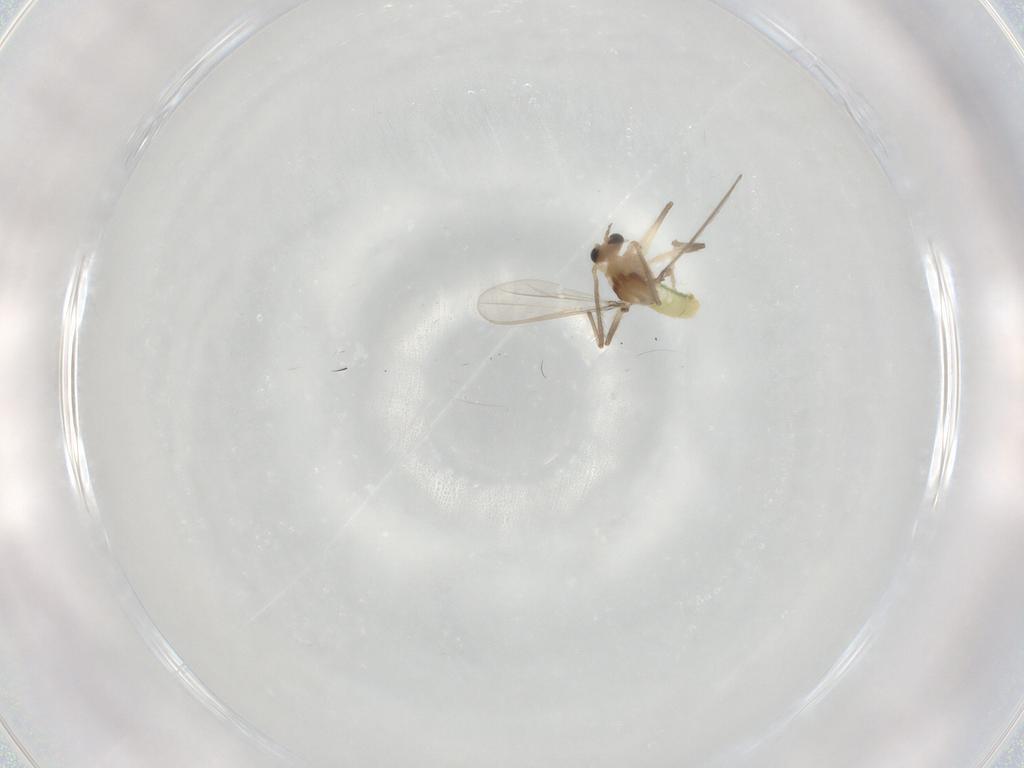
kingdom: Animalia
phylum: Arthropoda
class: Insecta
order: Diptera
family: Chironomidae
